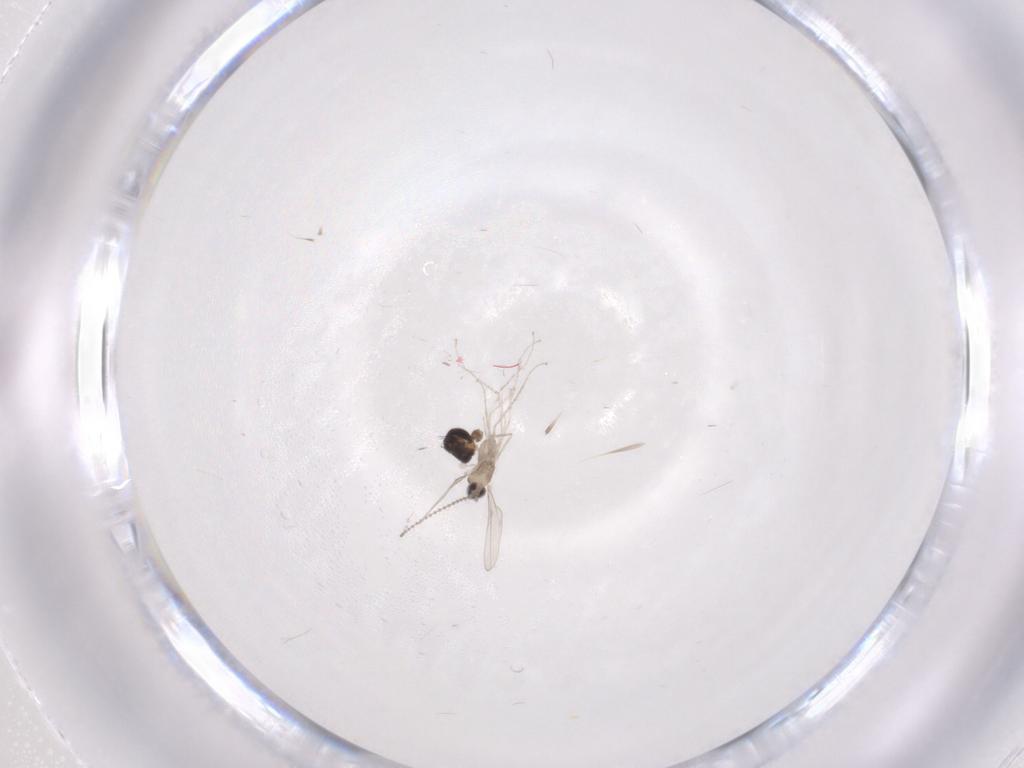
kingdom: Animalia
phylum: Arthropoda
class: Insecta
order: Diptera
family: Phoridae
